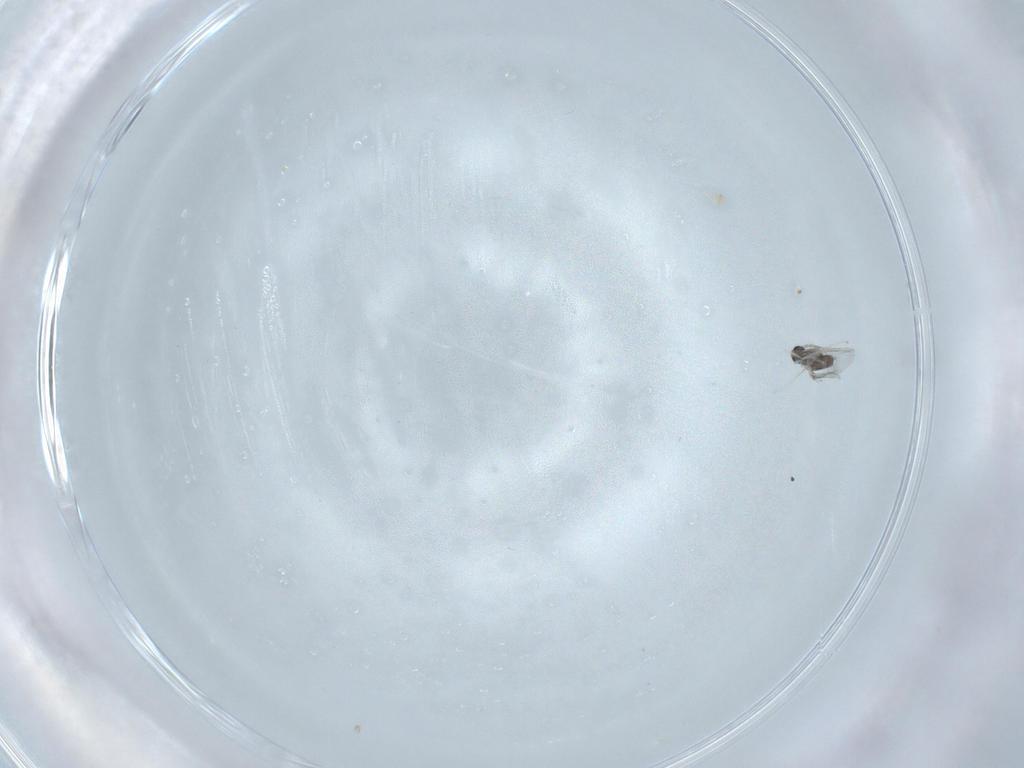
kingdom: Animalia
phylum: Arthropoda
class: Insecta
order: Diptera
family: Cecidomyiidae
